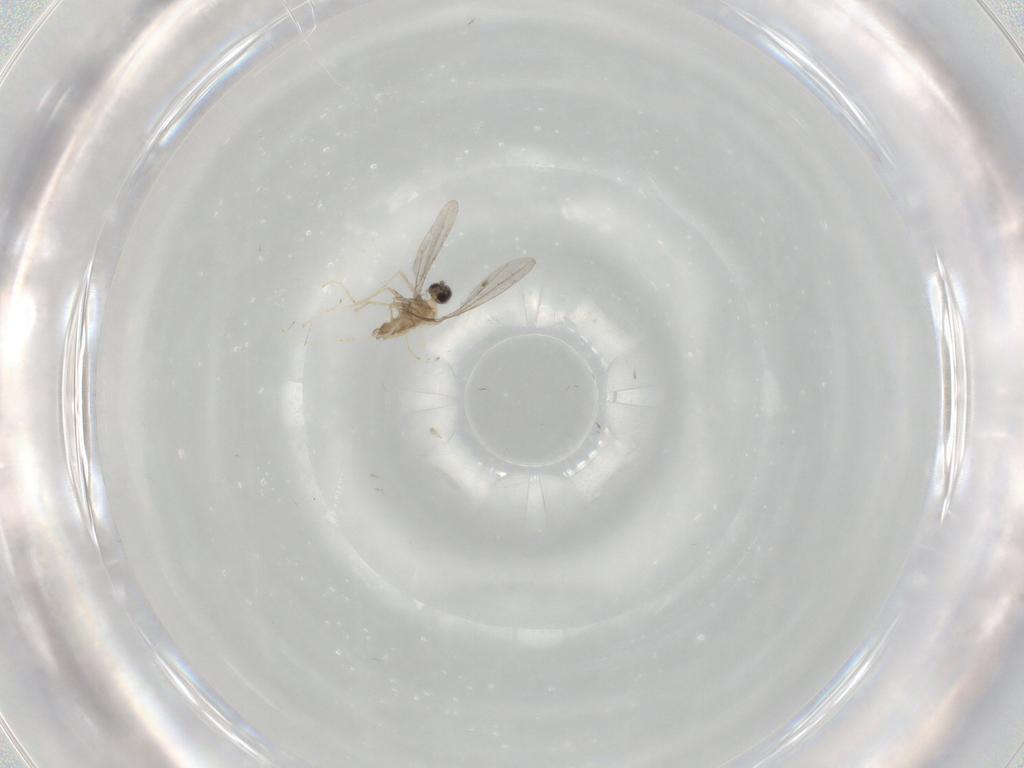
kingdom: Animalia
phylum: Arthropoda
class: Insecta
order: Diptera
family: Cecidomyiidae
